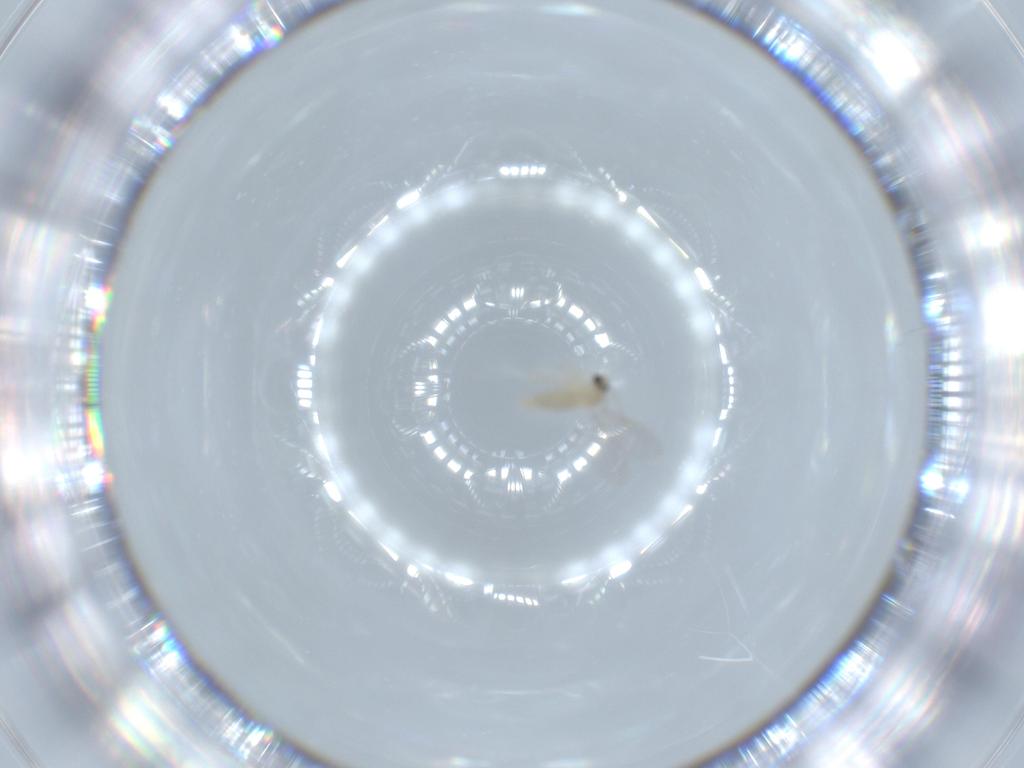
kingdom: Animalia
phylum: Arthropoda
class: Insecta
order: Diptera
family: Cecidomyiidae
